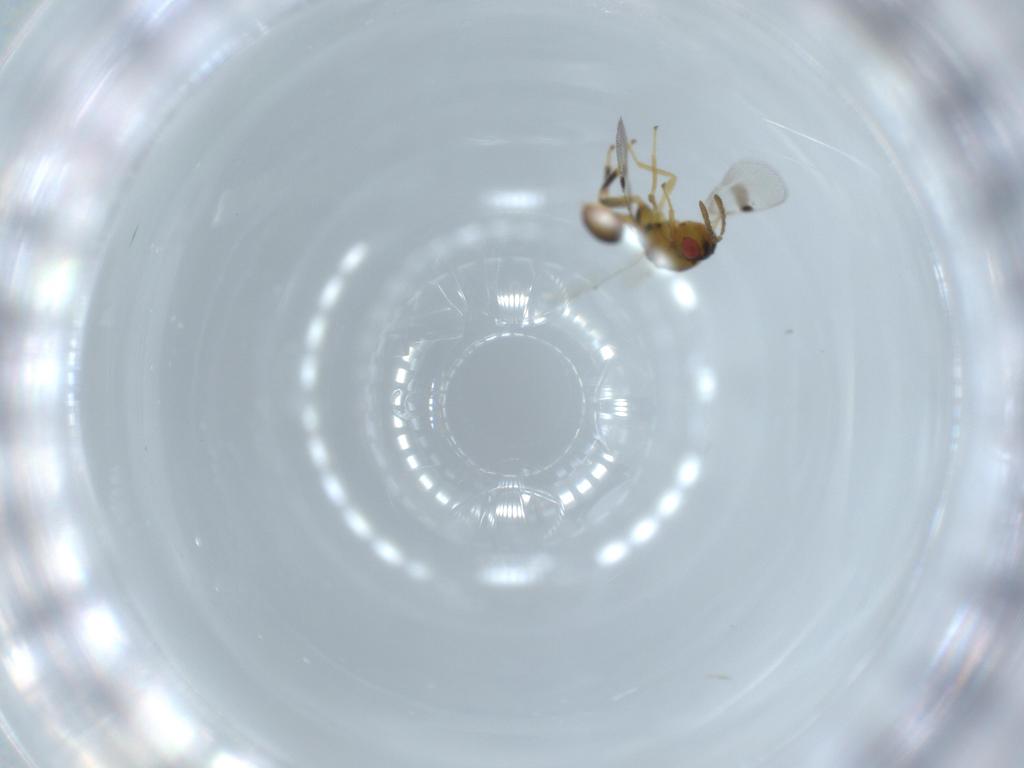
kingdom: Animalia
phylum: Arthropoda
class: Insecta
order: Hymenoptera
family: Eurytomidae
